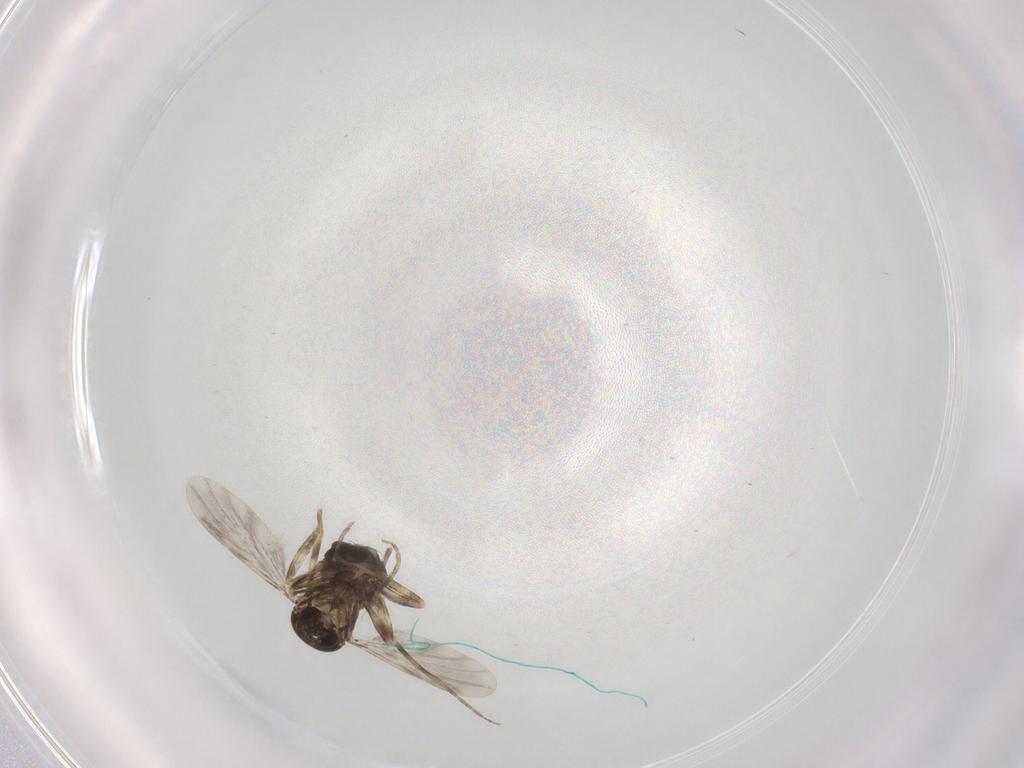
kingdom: Animalia
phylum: Arthropoda
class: Insecta
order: Diptera
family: Ceratopogonidae
